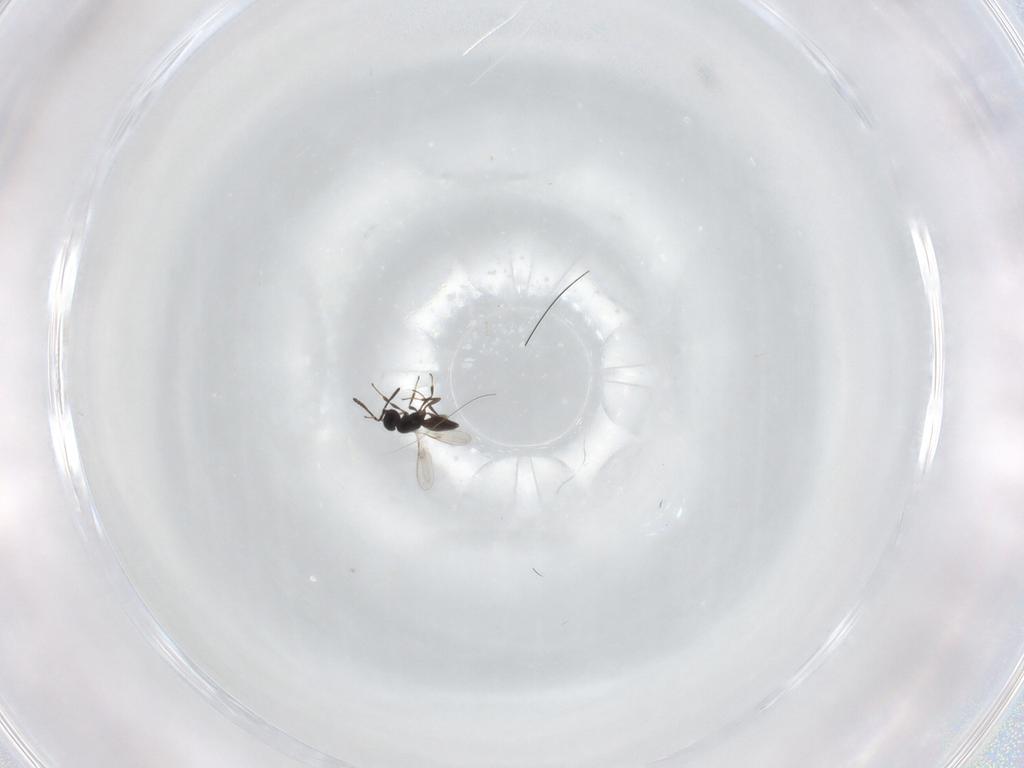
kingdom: Animalia
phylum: Arthropoda
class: Insecta
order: Hymenoptera
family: Scelionidae
